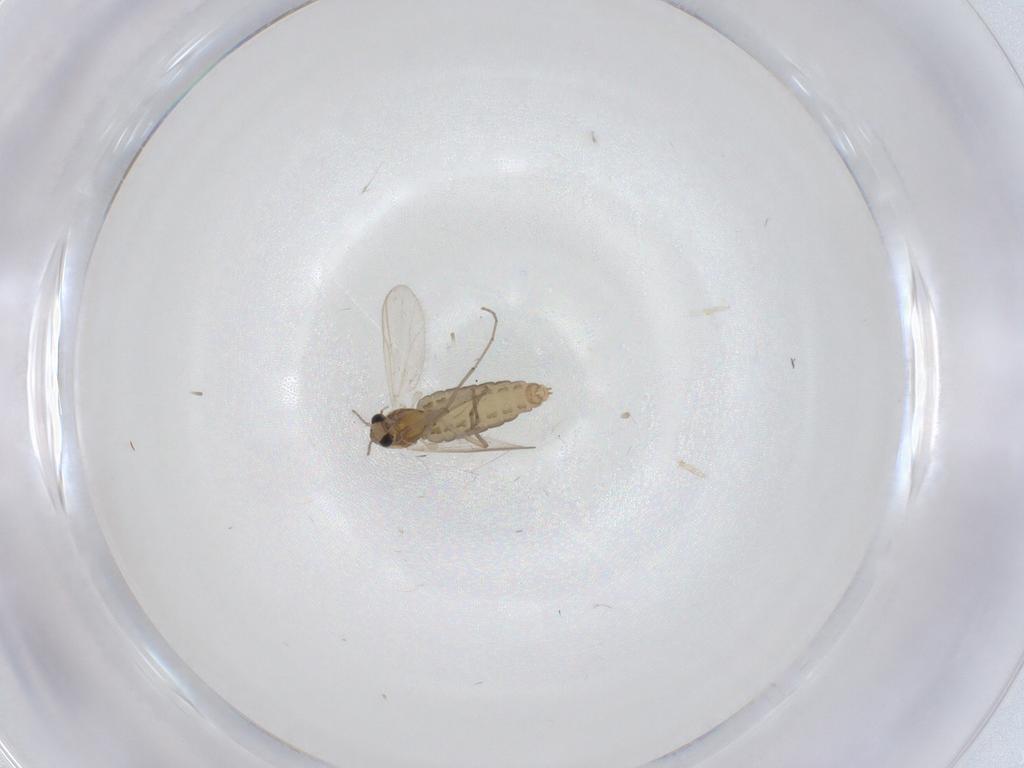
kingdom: Animalia
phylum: Arthropoda
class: Insecta
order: Diptera
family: Chironomidae
